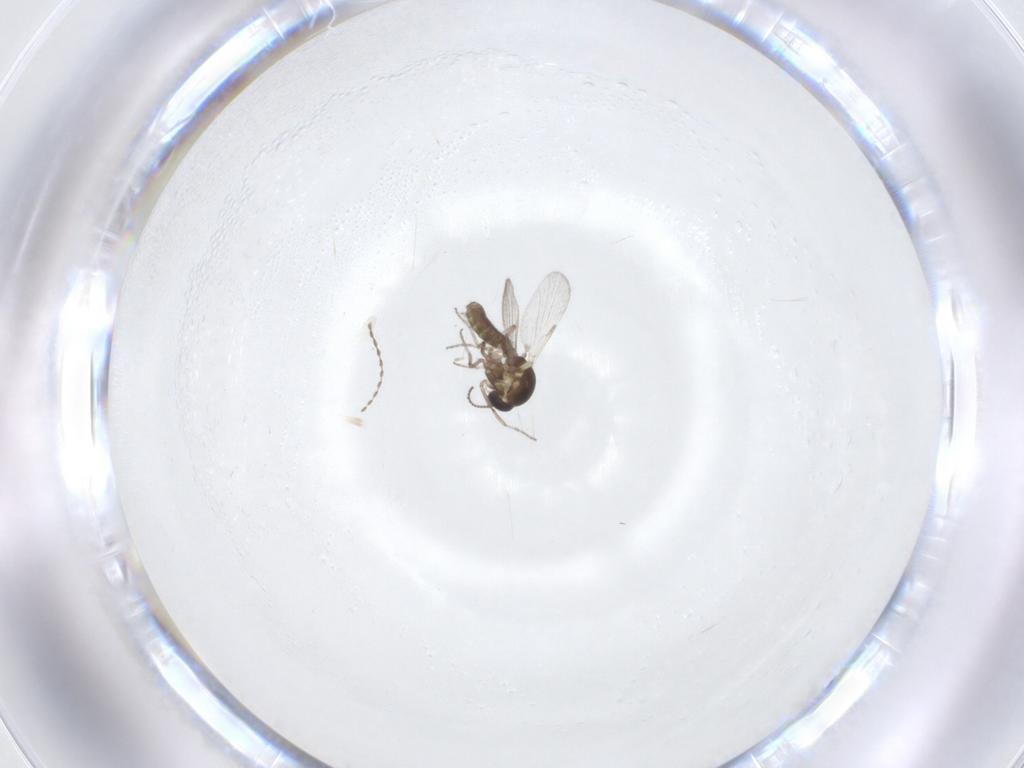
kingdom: Animalia
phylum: Arthropoda
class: Insecta
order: Diptera
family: Ceratopogonidae
